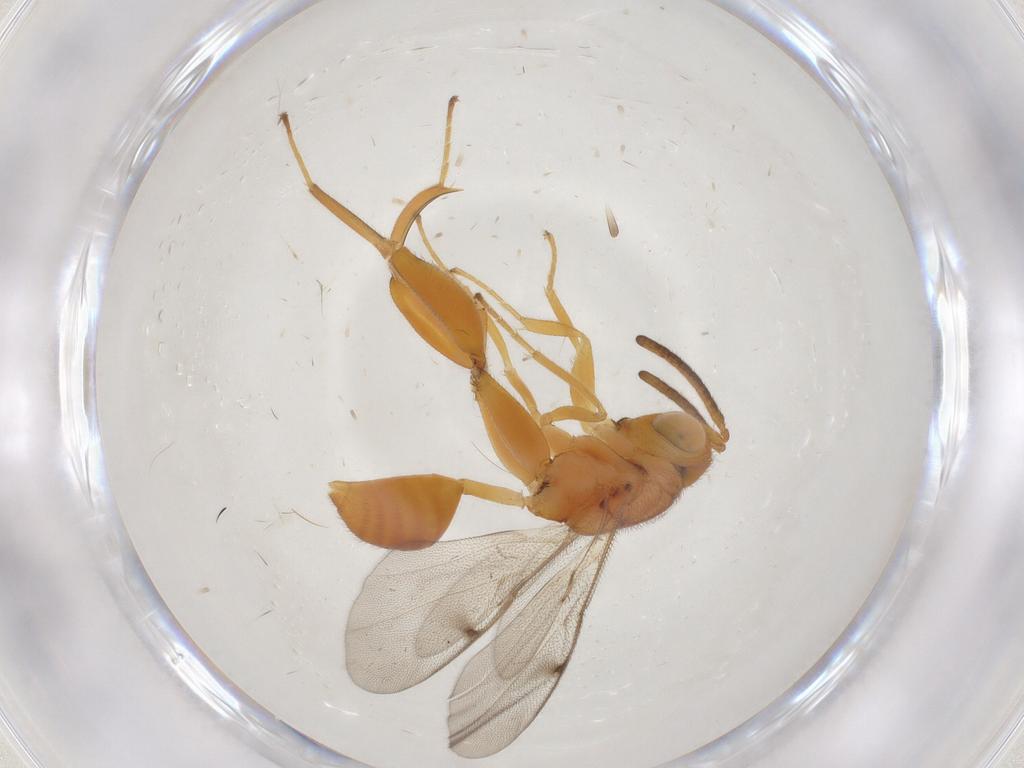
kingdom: Animalia
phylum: Arthropoda
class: Insecta
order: Hymenoptera
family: Chalcididae
